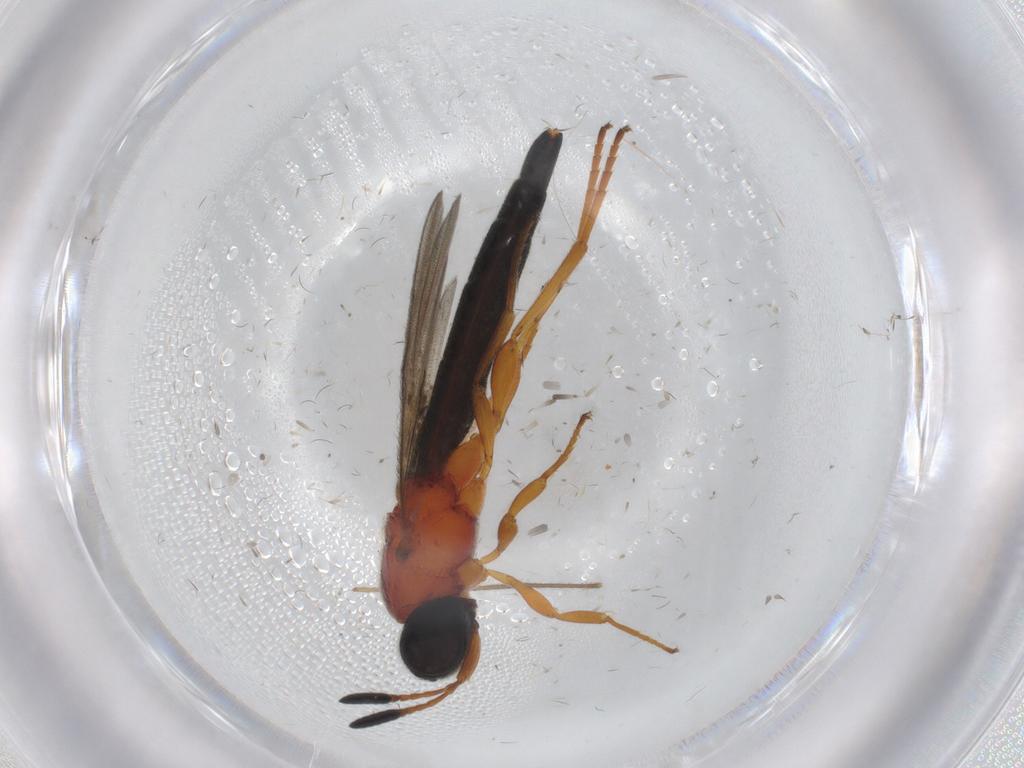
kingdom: Animalia
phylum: Arthropoda
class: Insecta
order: Hymenoptera
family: Scelionidae
